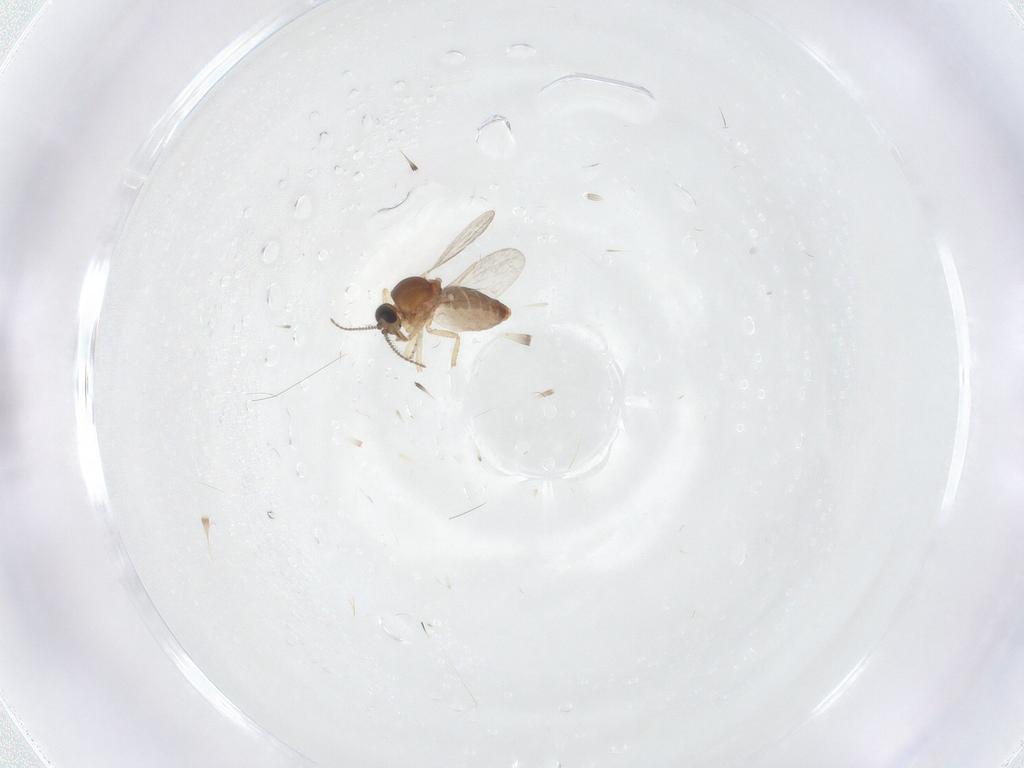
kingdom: Animalia
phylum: Arthropoda
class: Insecta
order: Diptera
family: Ceratopogonidae
